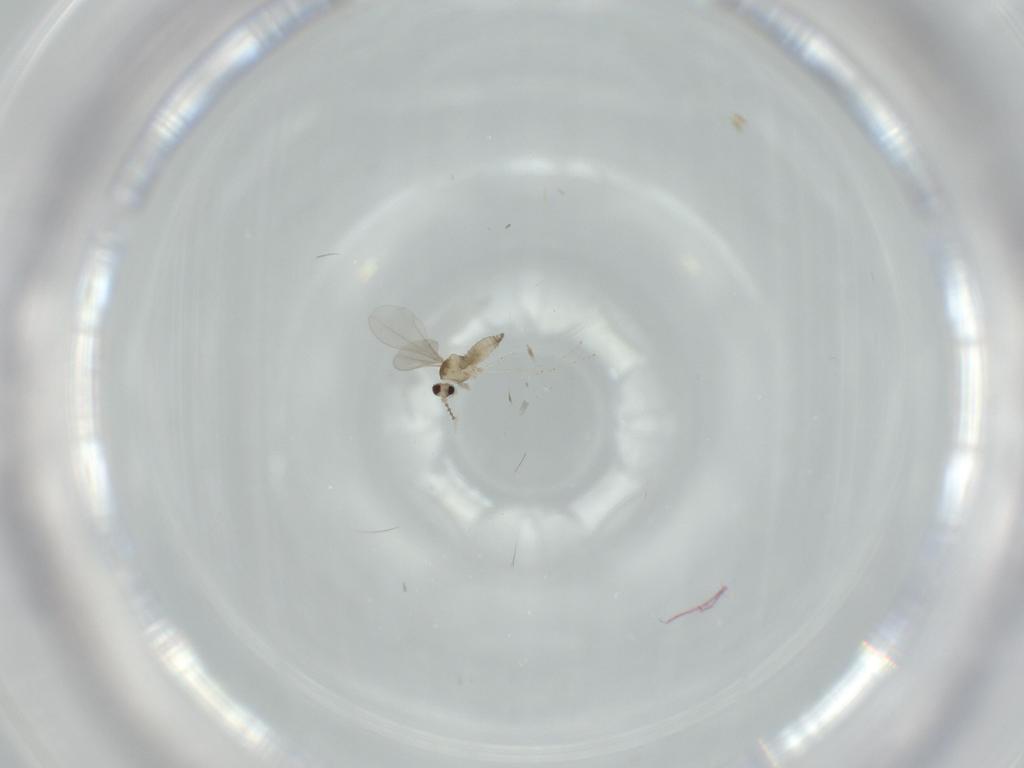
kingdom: Animalia
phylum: Arthropoda
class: Insecta
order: Diptera
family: Cecidomyiidae
